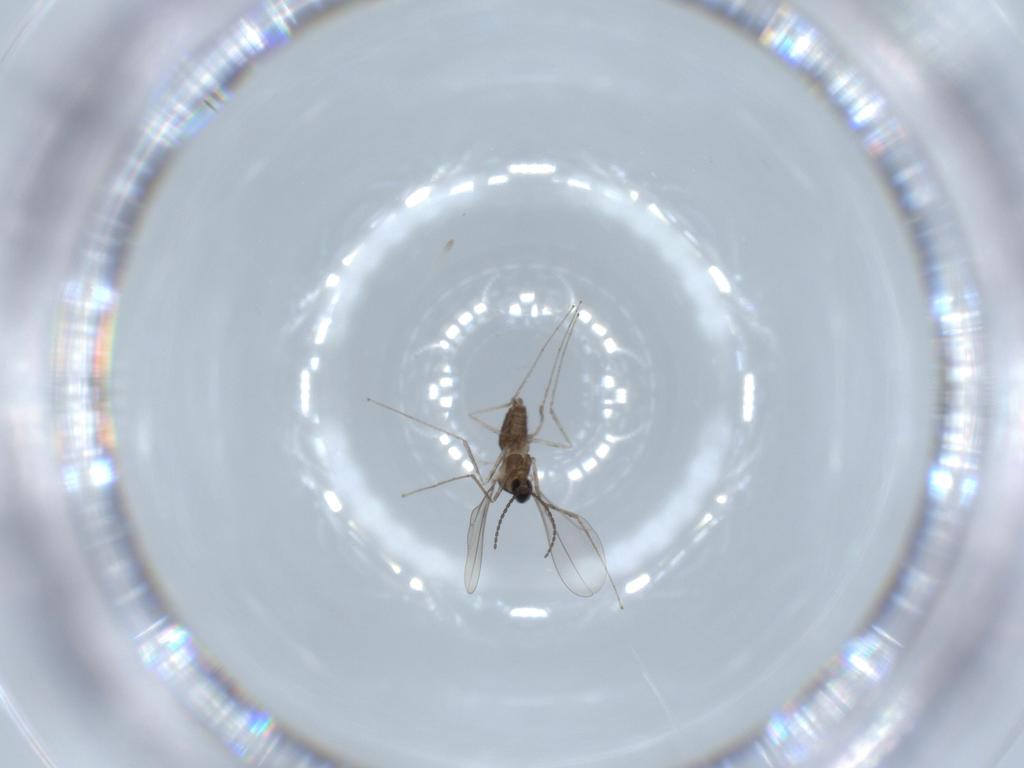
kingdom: Animalia
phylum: Arthropoda
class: Insecta
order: Diptera
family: Cecidomyiidae
